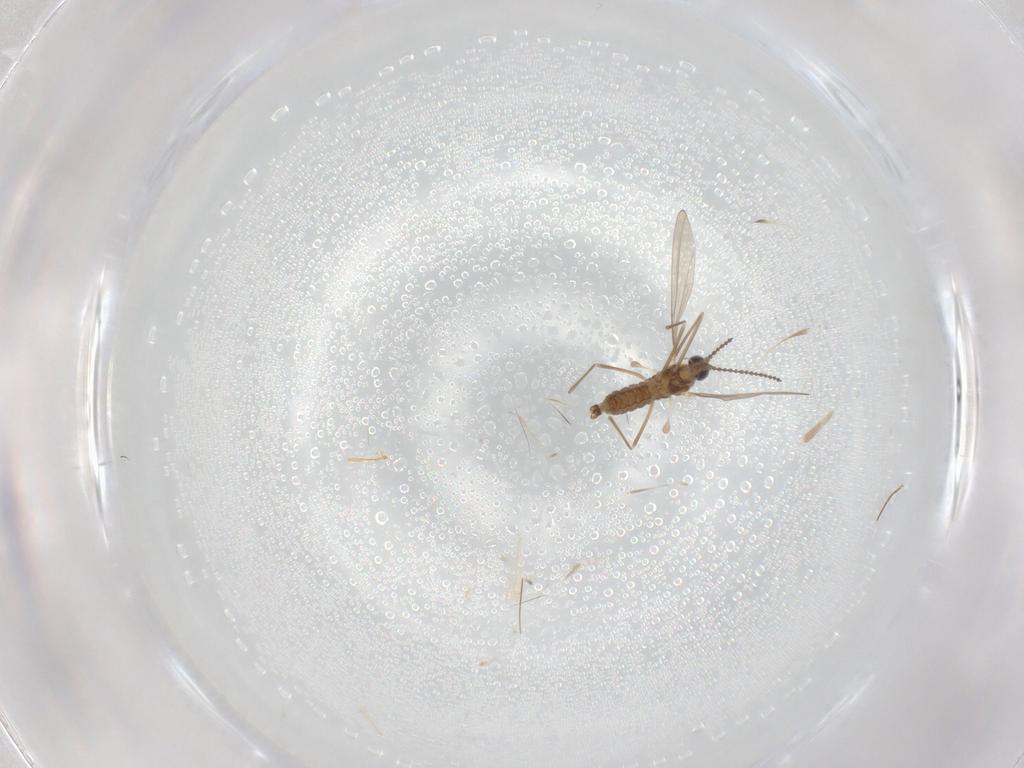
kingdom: Animalia
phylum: Arthropoda
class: Insecta
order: Diptera
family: Cecidomyiidae
